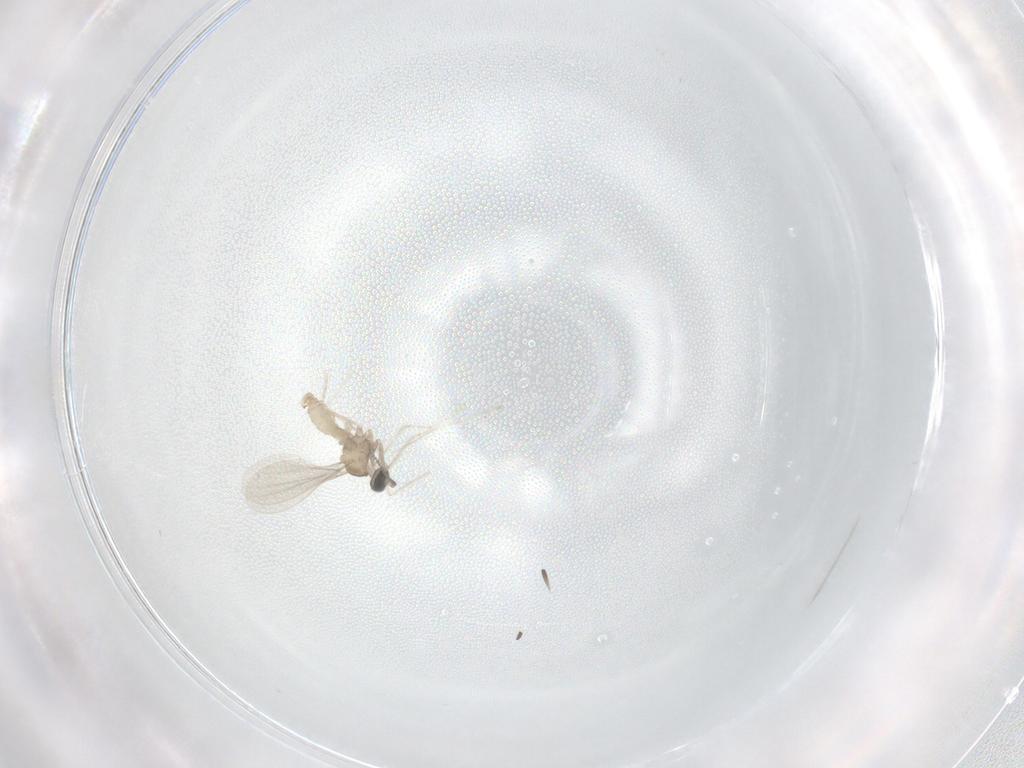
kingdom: Animalia
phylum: Arthropoda
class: Insecta
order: Diptera
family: Cecidomyiidae
